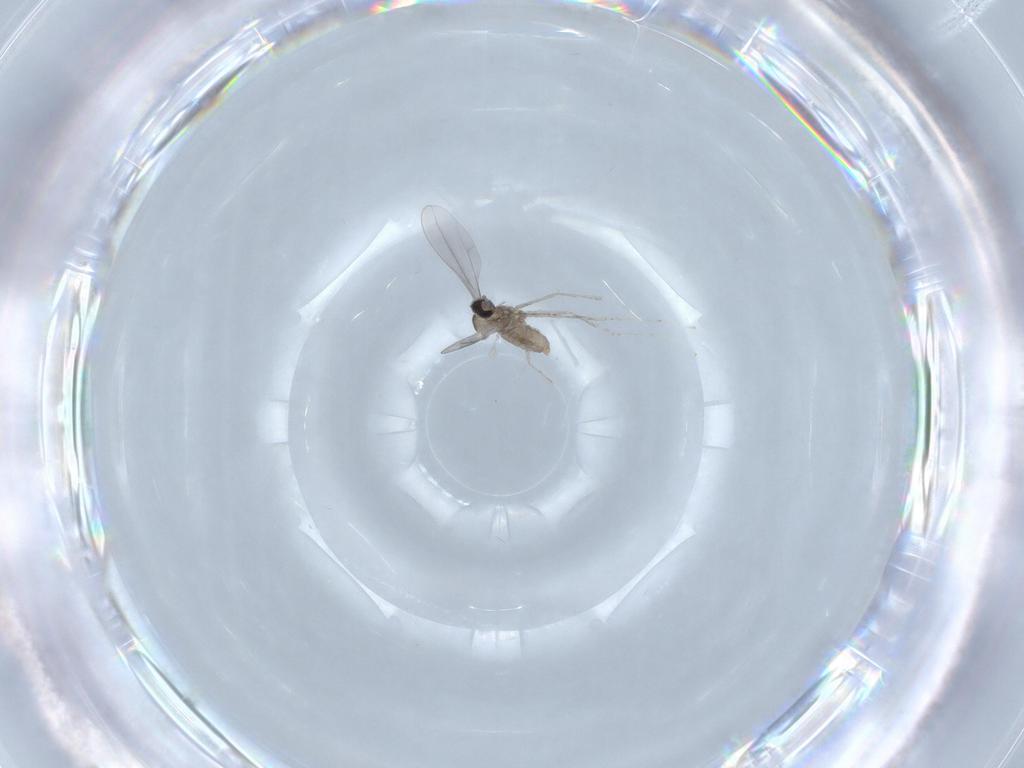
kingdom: Animalia
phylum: Arthropoda
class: Insecta
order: Diptera
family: Cecidomyiidae
